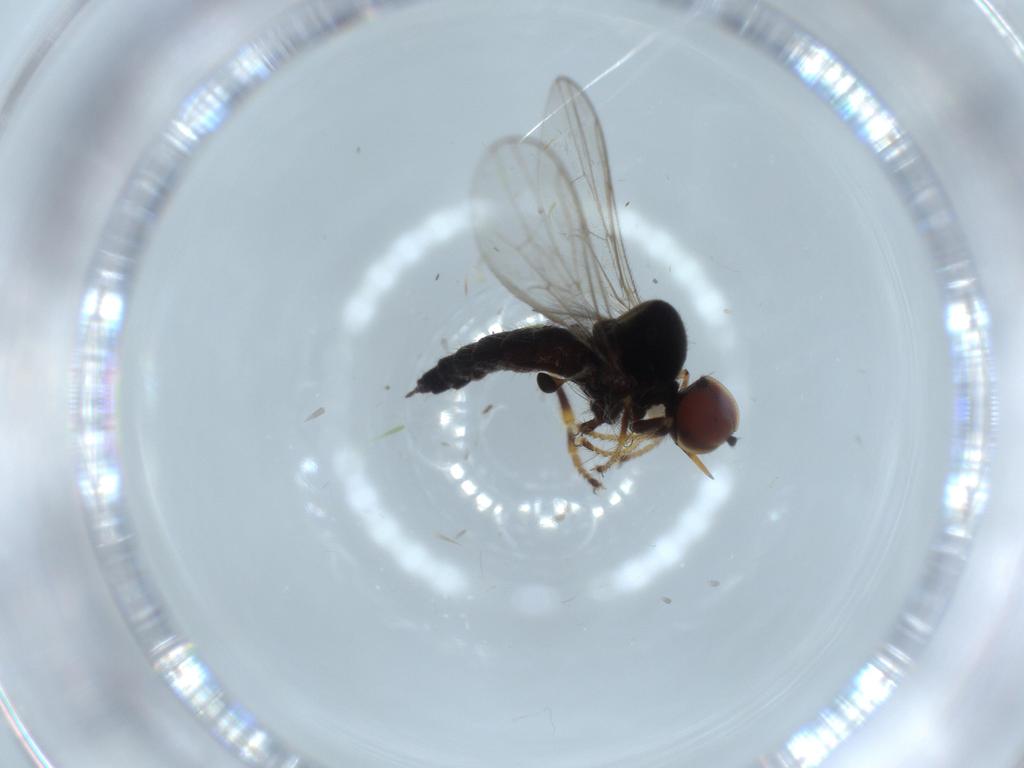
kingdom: Animalia
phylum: Arthropoda
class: Insecta
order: Diptera
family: Hybotidae
